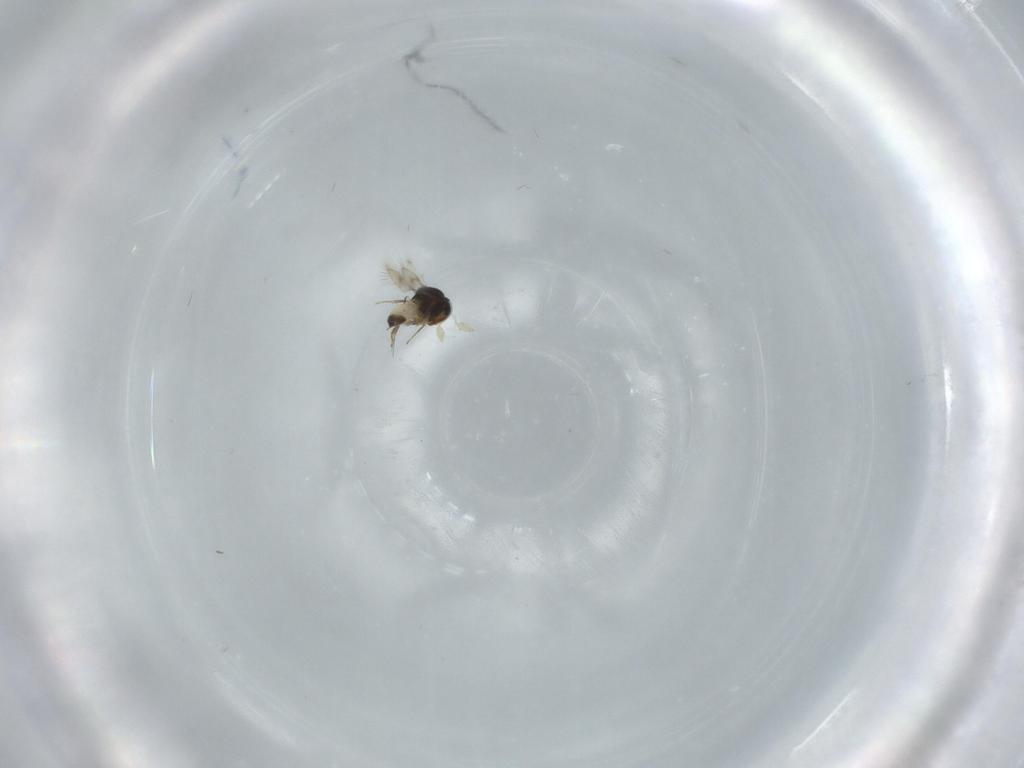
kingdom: Animalia
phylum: Arthropoda
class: Insecta
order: Hymenoptera
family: Scelionidae
